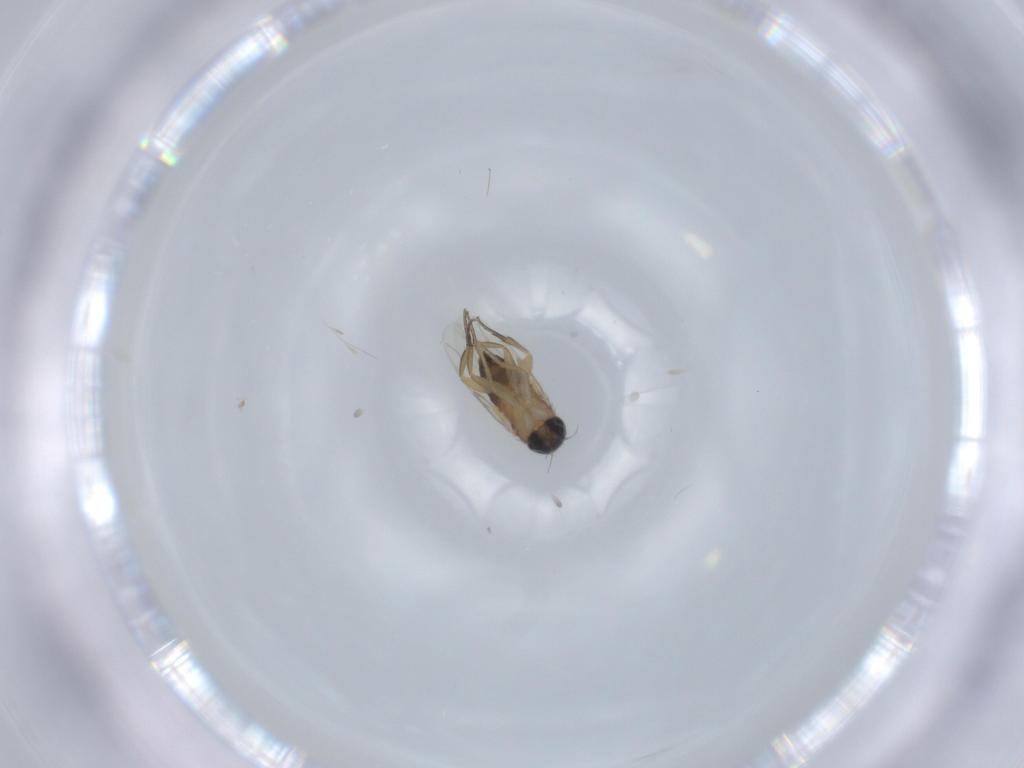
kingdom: Animalia
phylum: Arthropoda
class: Insecta
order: Diptera
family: Phoridae
